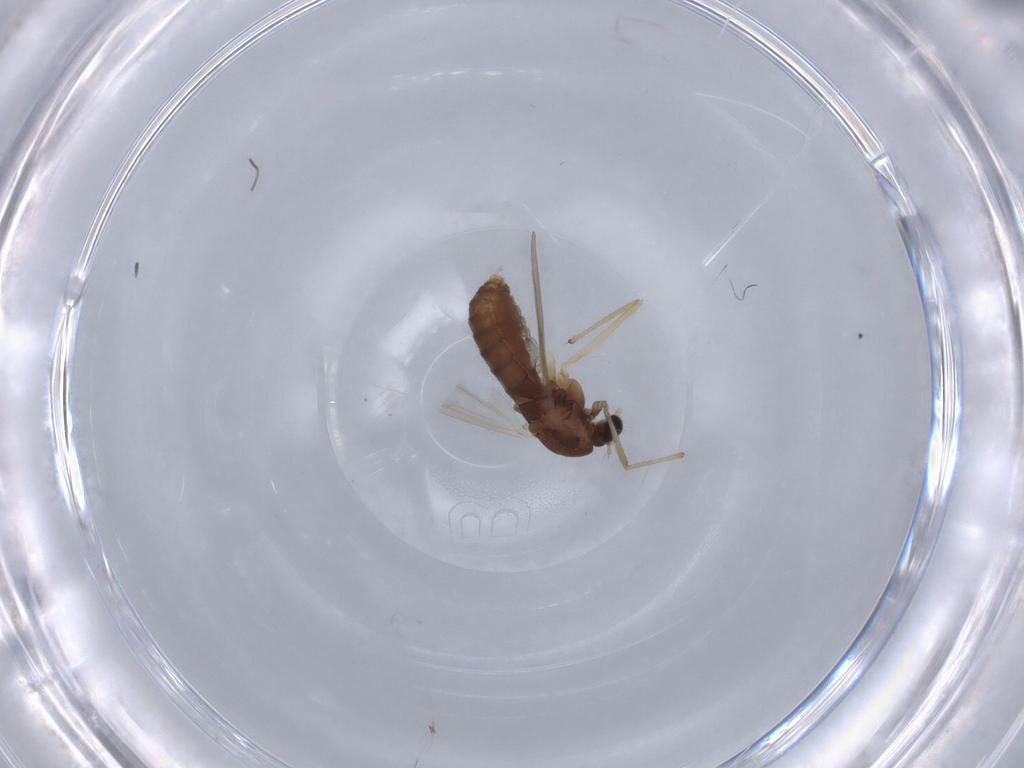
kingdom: Animalia
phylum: Arthropoda
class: Insecta
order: Diptera
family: Chironomidae
